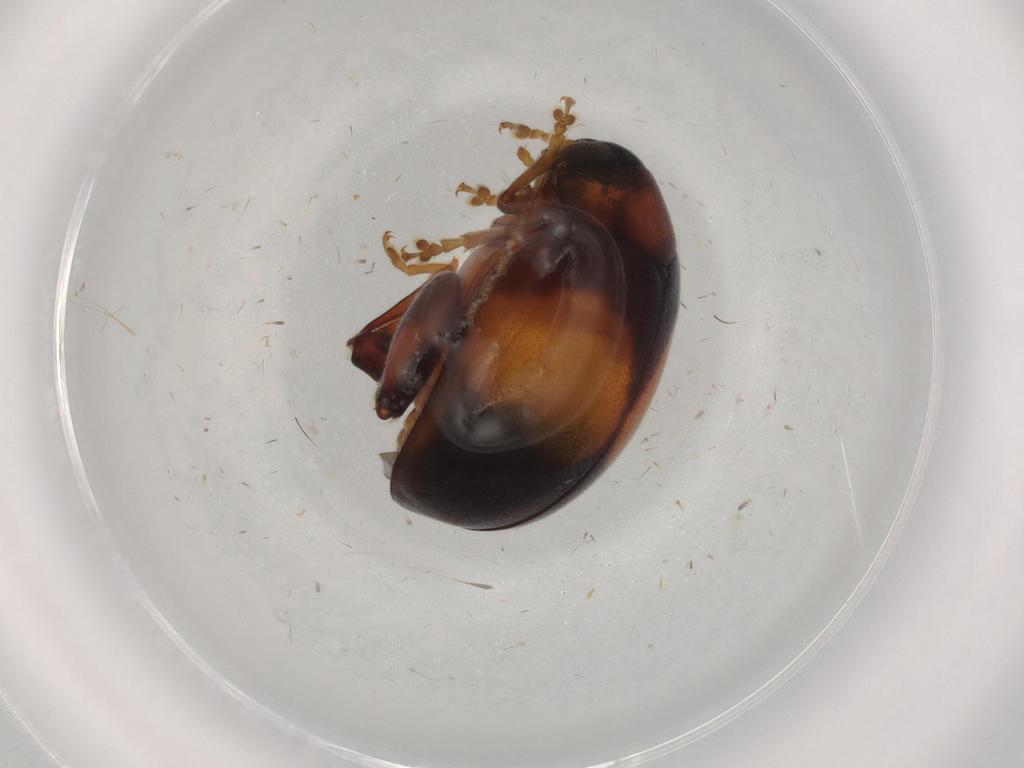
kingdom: Animalia
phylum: Arthropoda
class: Insecta
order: Coleoptera
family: Chrysomelidae
